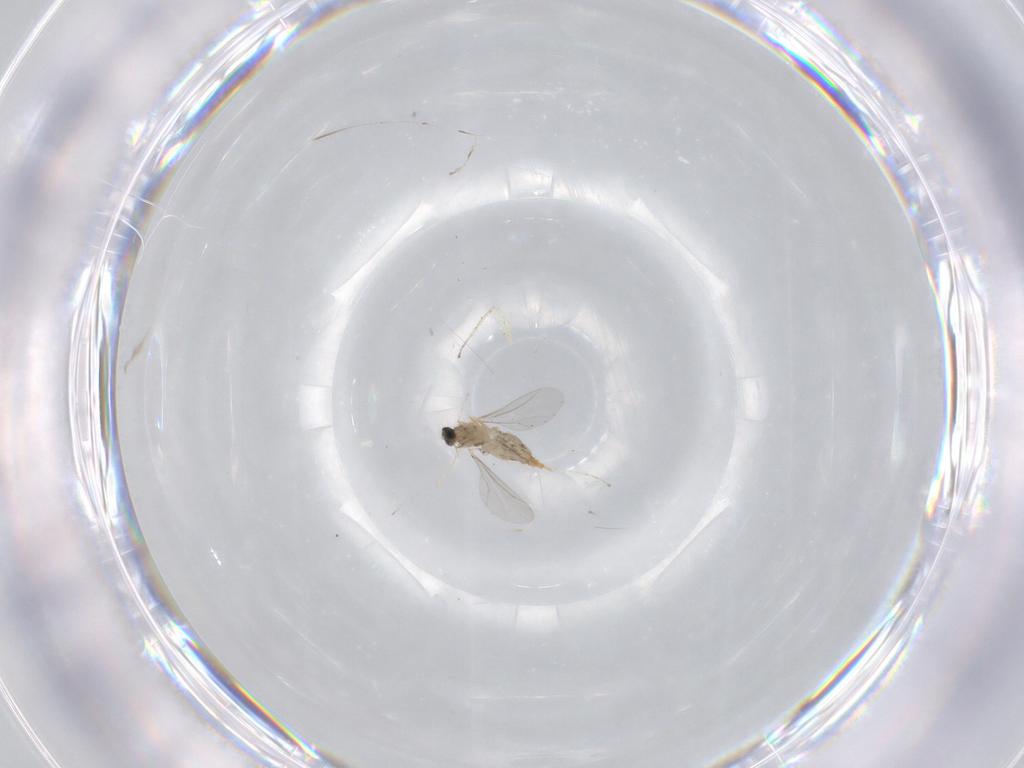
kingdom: Animalia
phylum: Arthropoda
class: Insecta
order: Diptera
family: Cecidomyiidae
